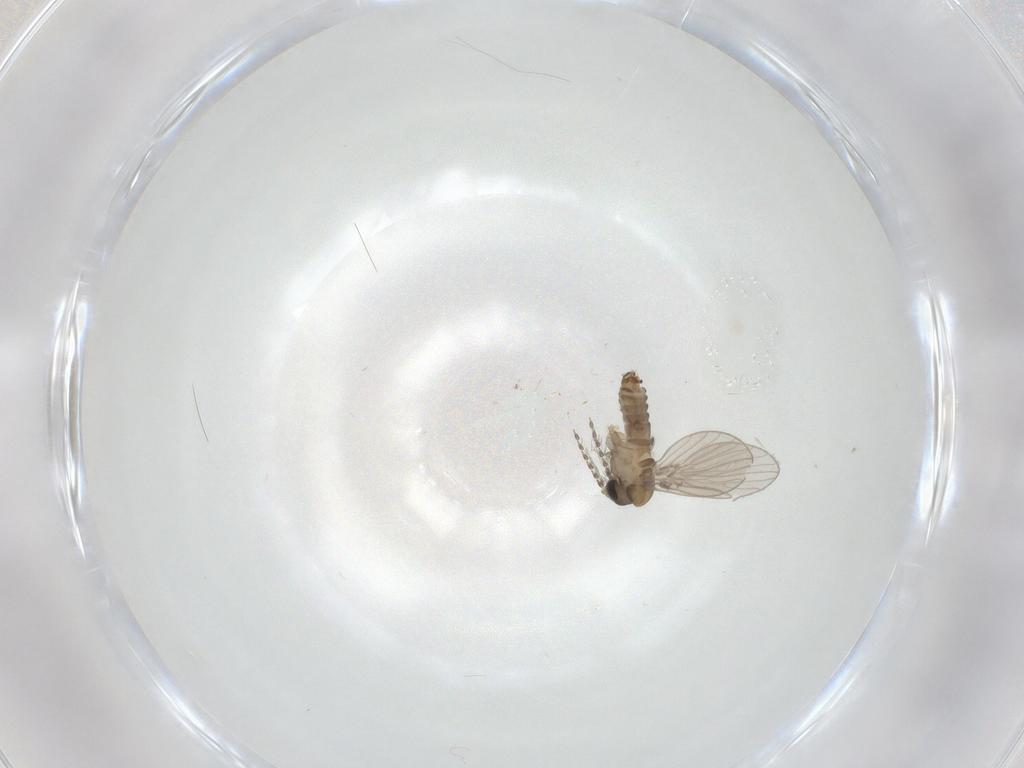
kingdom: Animalia
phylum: Arthropoda
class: Insecta
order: Diptera
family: Psychodidae
